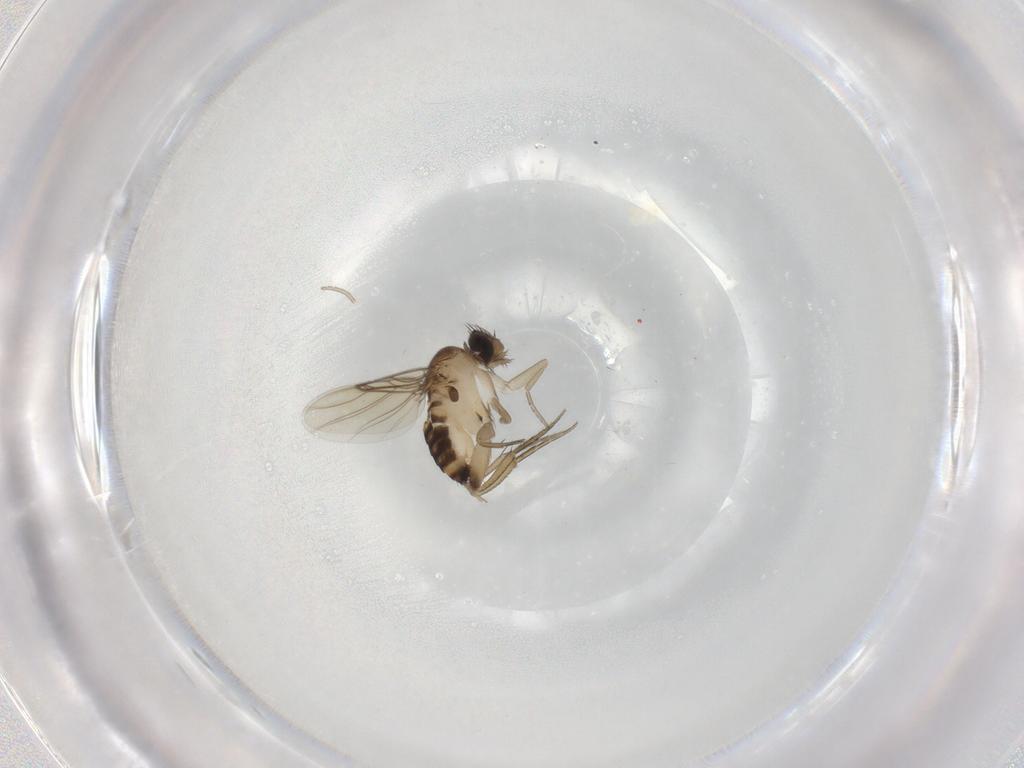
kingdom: Animalia
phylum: Arthropoda
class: Insecta
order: Diptera
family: Phoridae
